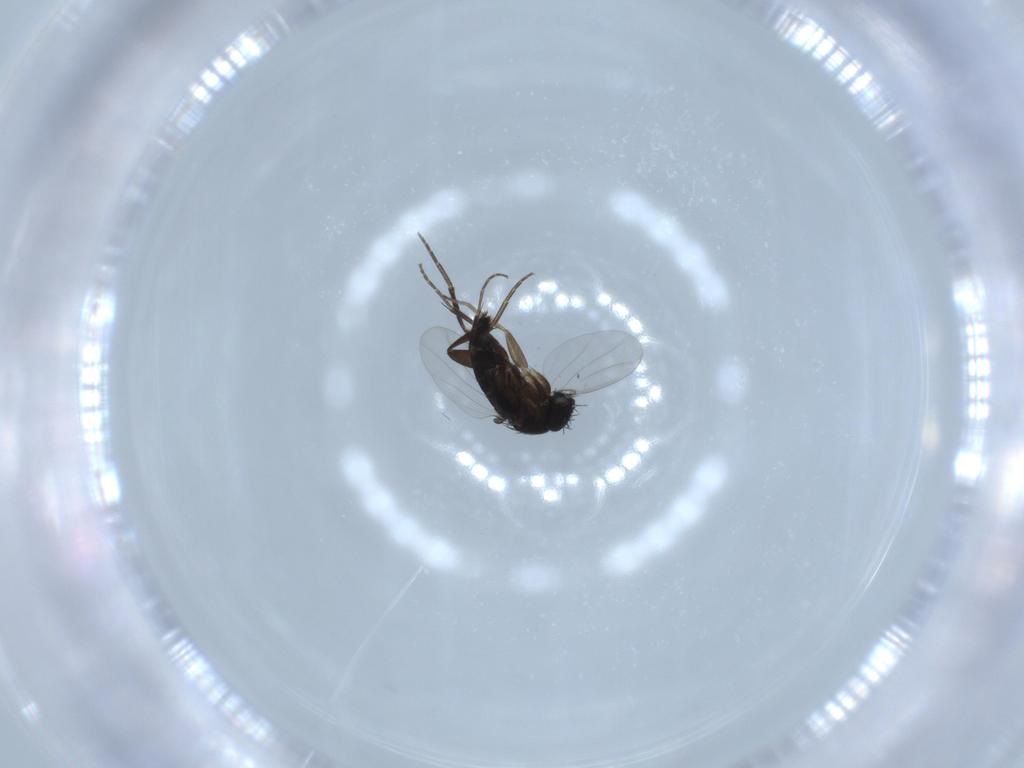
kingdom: Animalia
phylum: Arthropoda
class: Insecta
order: Diptera
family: Phoridae
